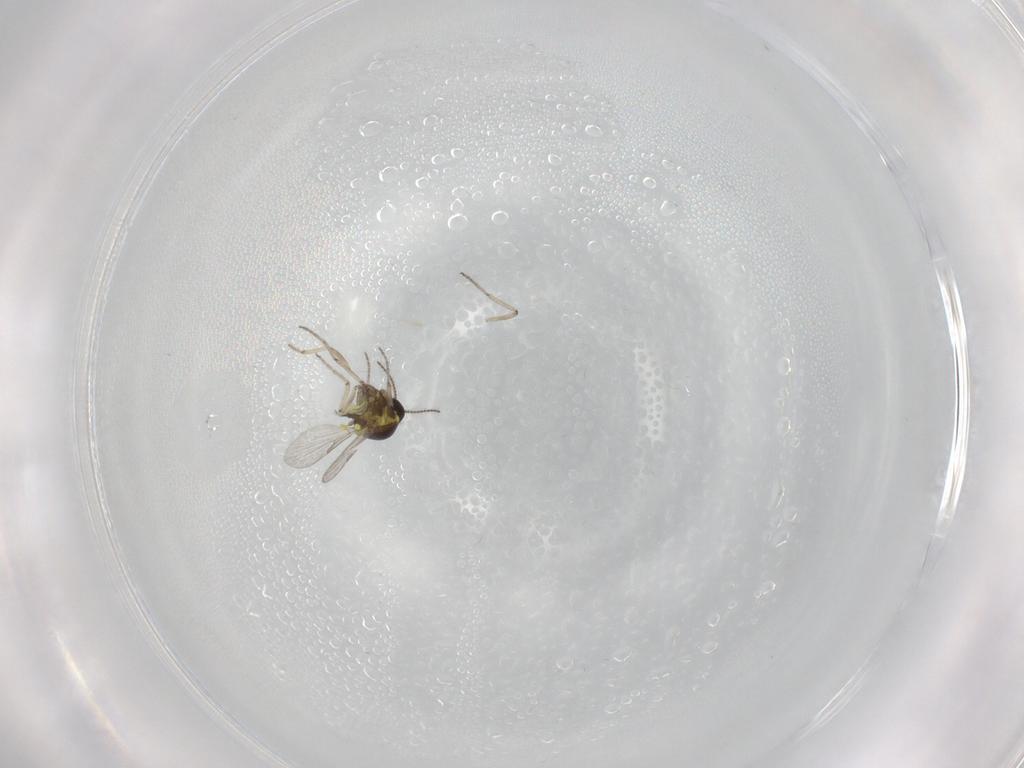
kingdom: Animalia
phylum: Arthropoda
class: Insecta
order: Diptera
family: Ceratopogonidae
